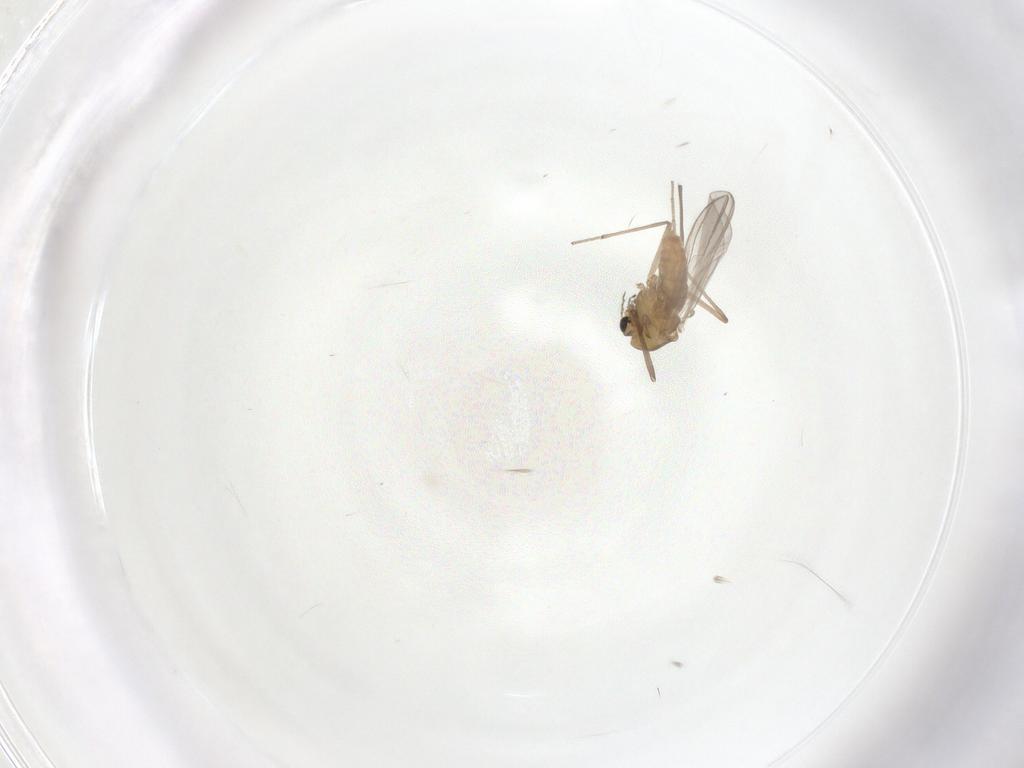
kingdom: Animalia
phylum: Arthropoda
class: Insecta
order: Diptera
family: Chironomidae
